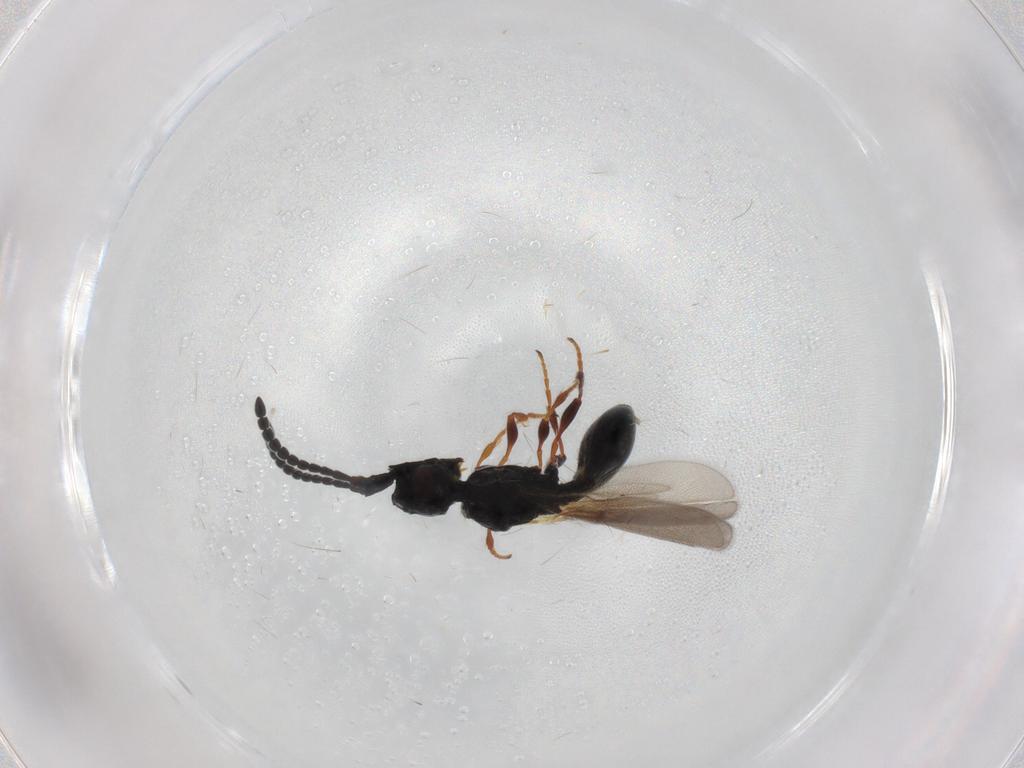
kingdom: Animalia
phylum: Arthropoda
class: Insecta
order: Hymenoptera
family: Diapriidae
